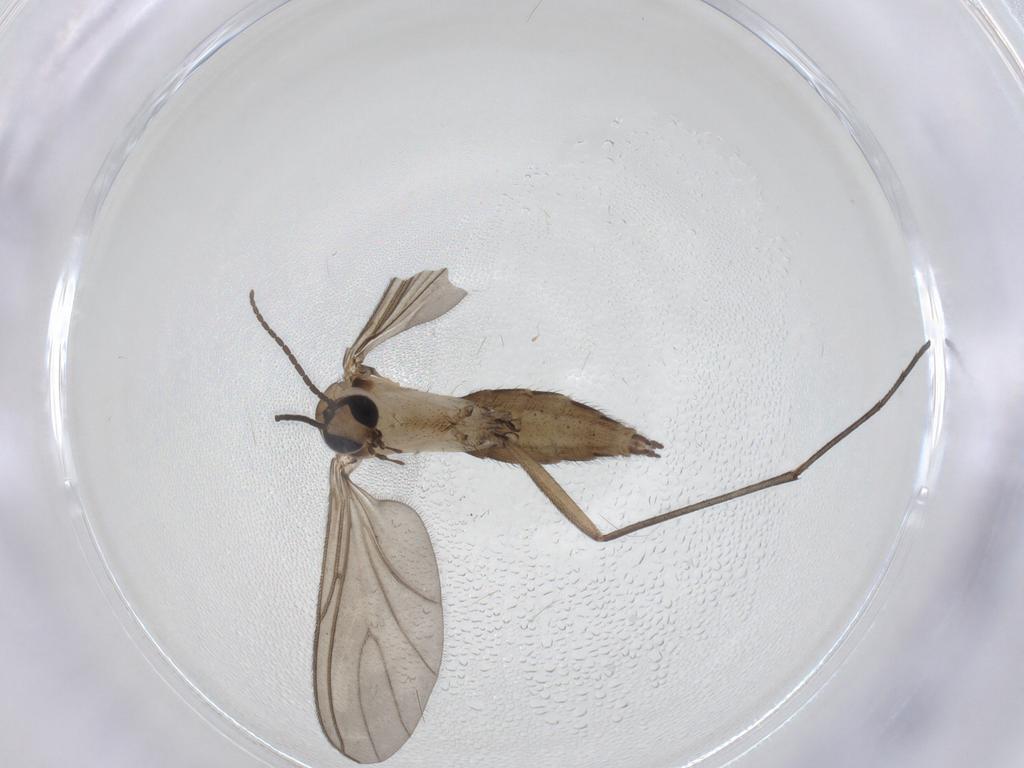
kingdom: Animalia
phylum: Arthropoda
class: Insecta
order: Diptera
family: Sciaridae
